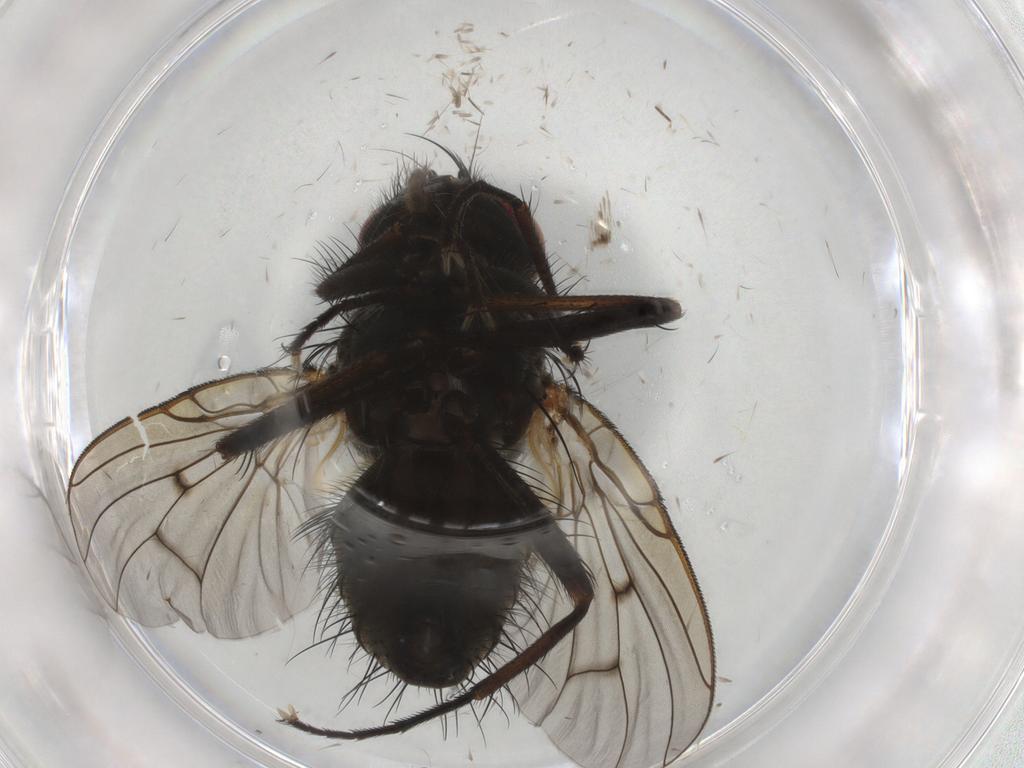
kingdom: Animalia
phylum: Arthropoda
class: Insecta
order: Diptera
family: Muscidae
